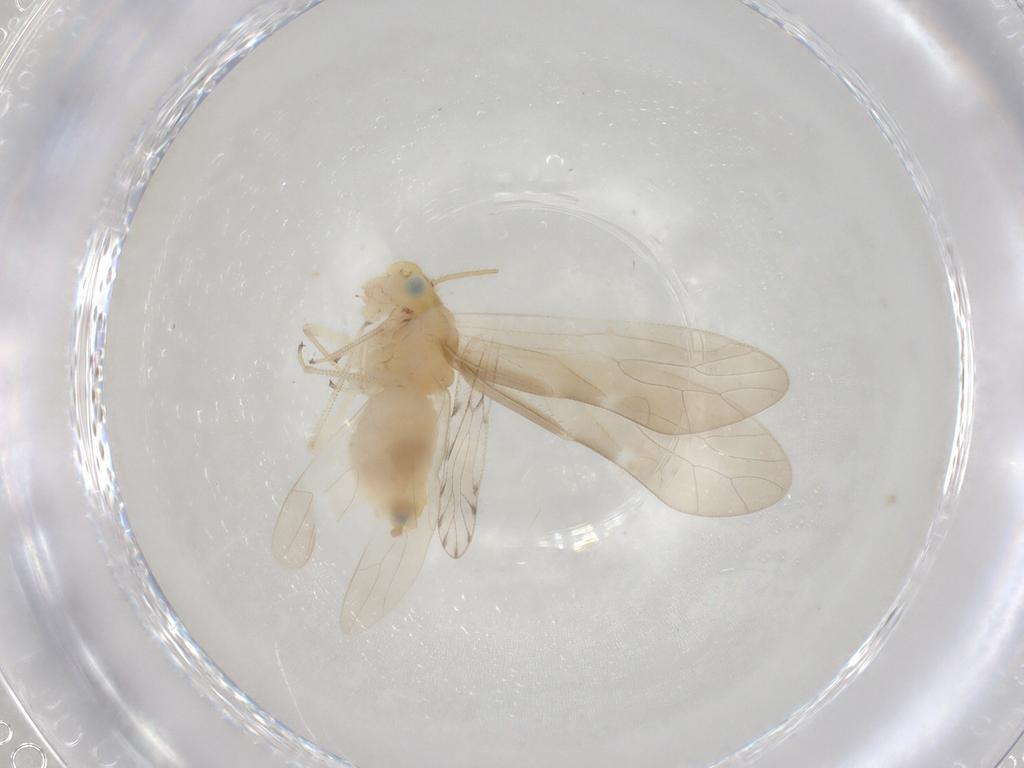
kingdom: Animalia
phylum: Arthropoda
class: Insecta
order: Psocodea
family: Caeciliusidae
